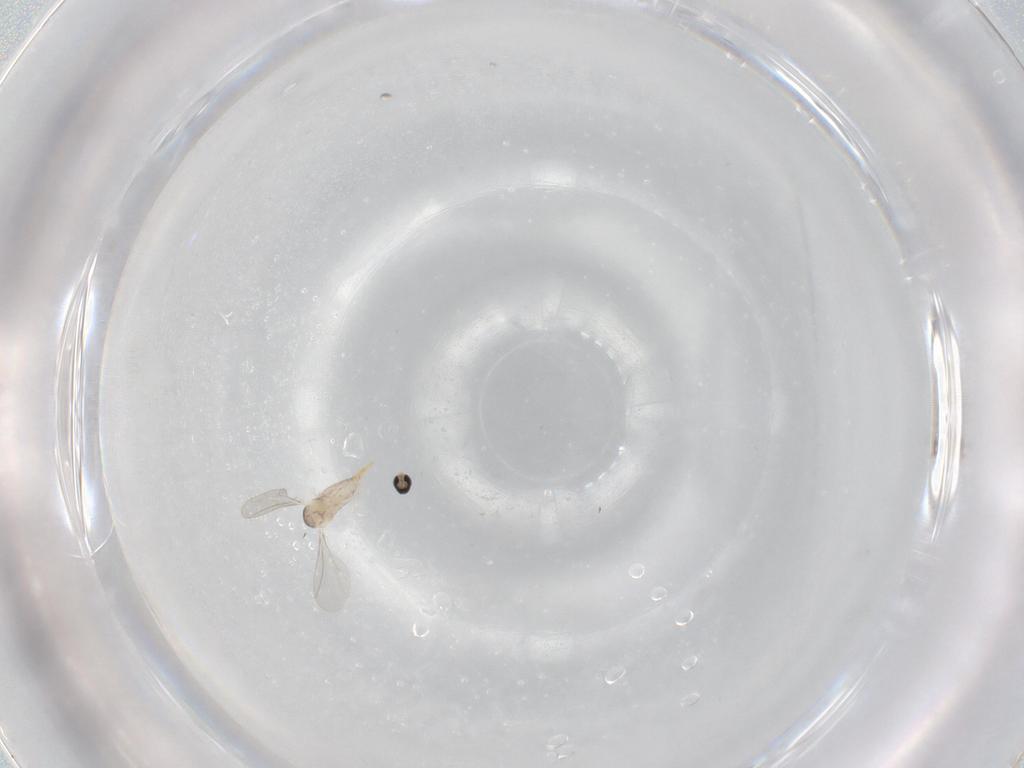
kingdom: Animalia
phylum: Arthropoda
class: Insecta
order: Diptera
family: Cecidomyiidae
